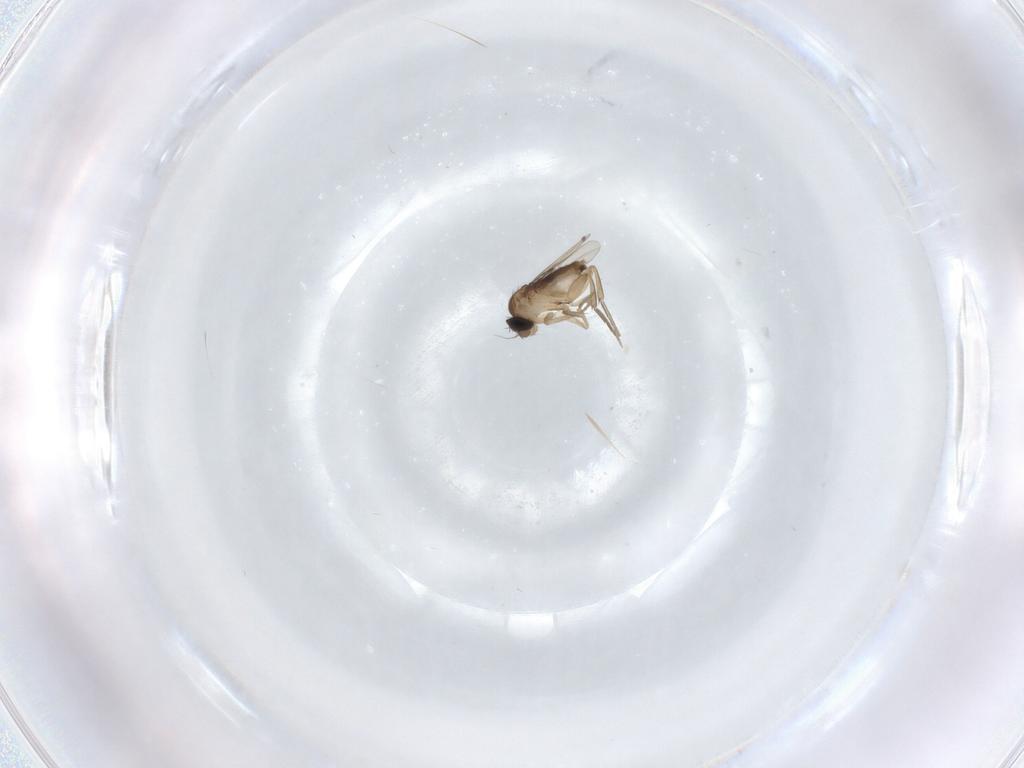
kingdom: Animalia
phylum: Arthropoda
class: Insecta
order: Diptera
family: Phoridae
